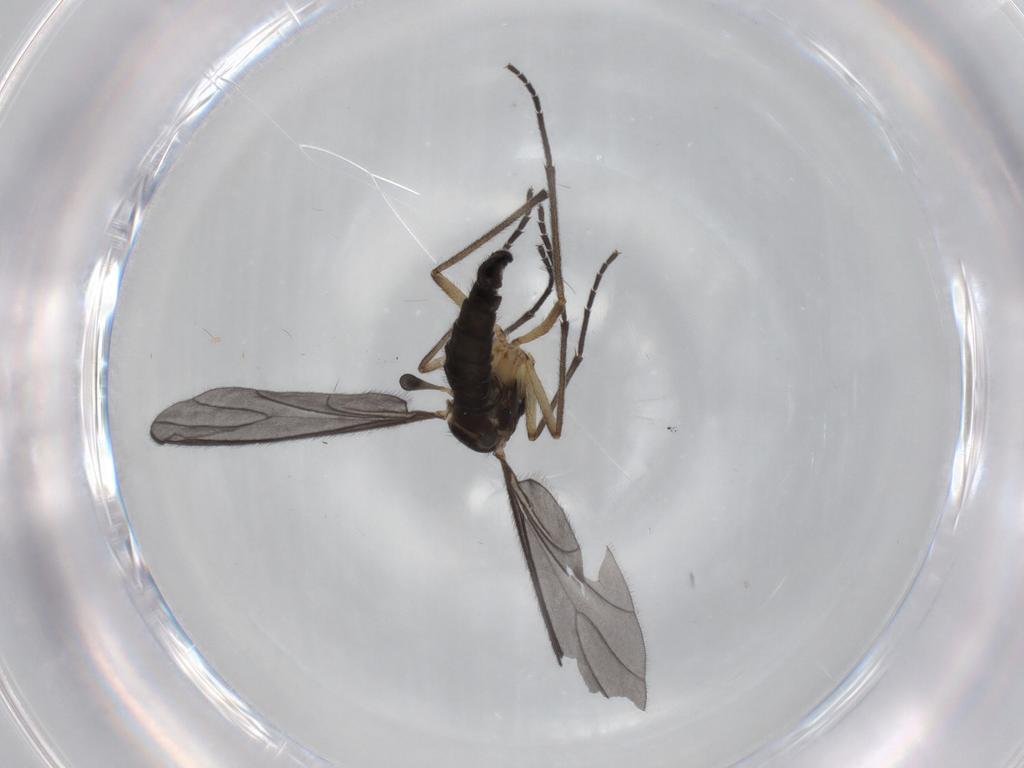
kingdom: Animalia
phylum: Arthropoda
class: Insecta
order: Diptera
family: Sciaridae
